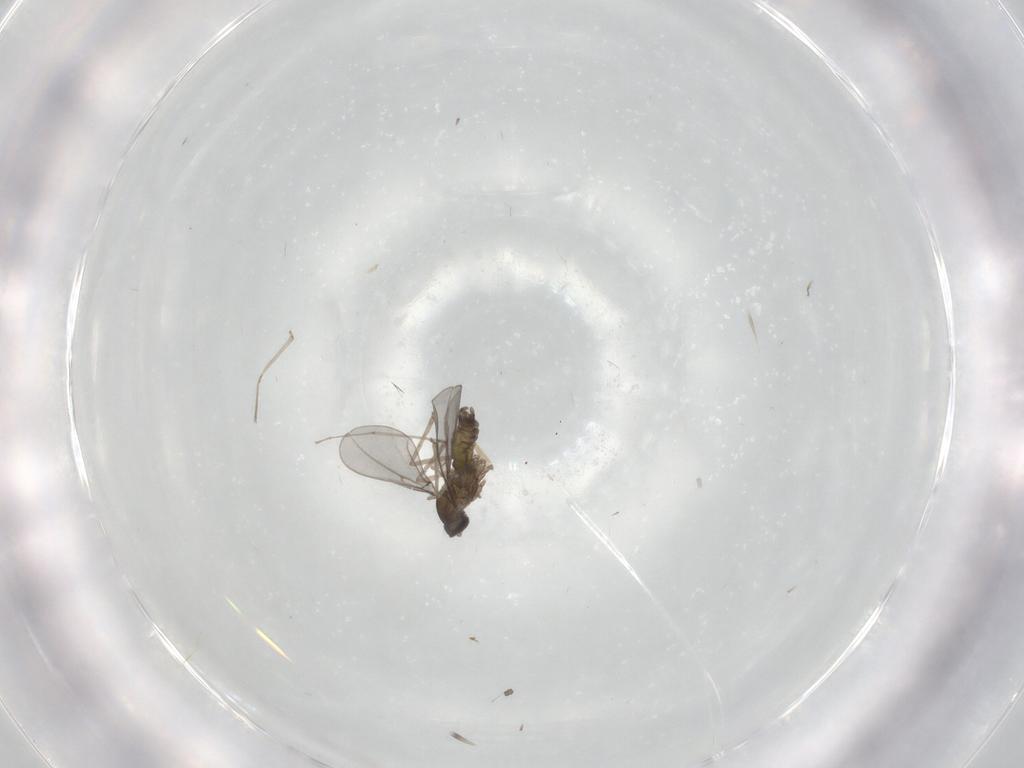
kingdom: Animalia
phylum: Arthropoda
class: Insecta
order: Diptera
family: Cecidomyiidae
